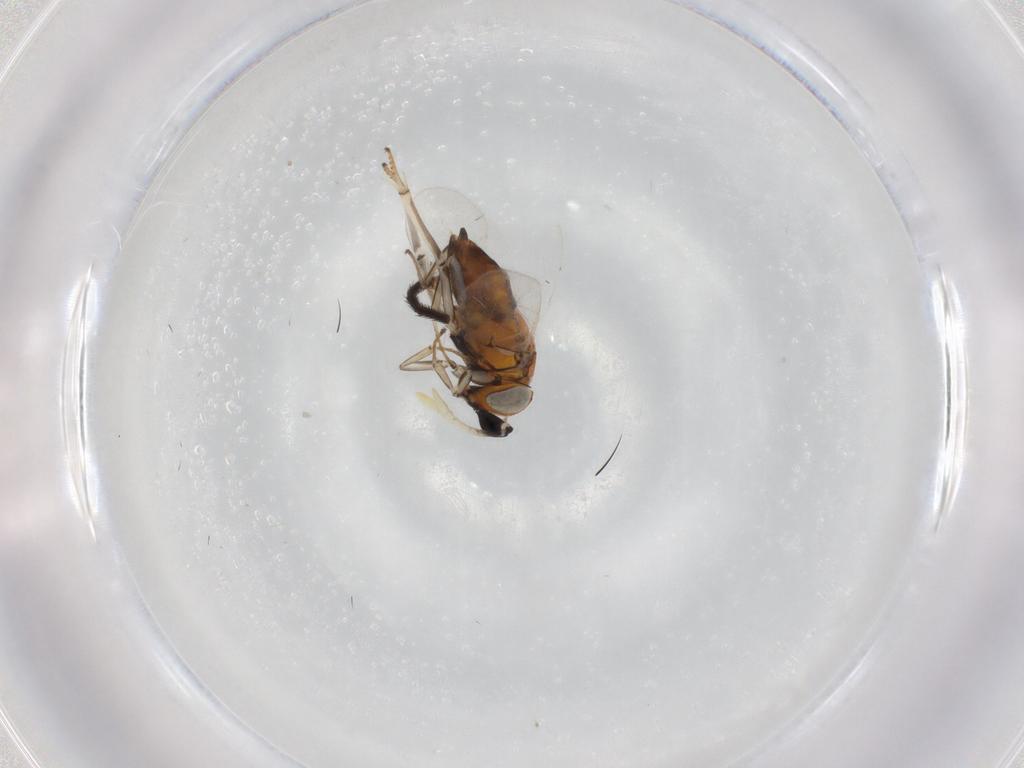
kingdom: Animalia
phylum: Arthropoda
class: Insecta
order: Hymenoptera
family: Encyrtidae
